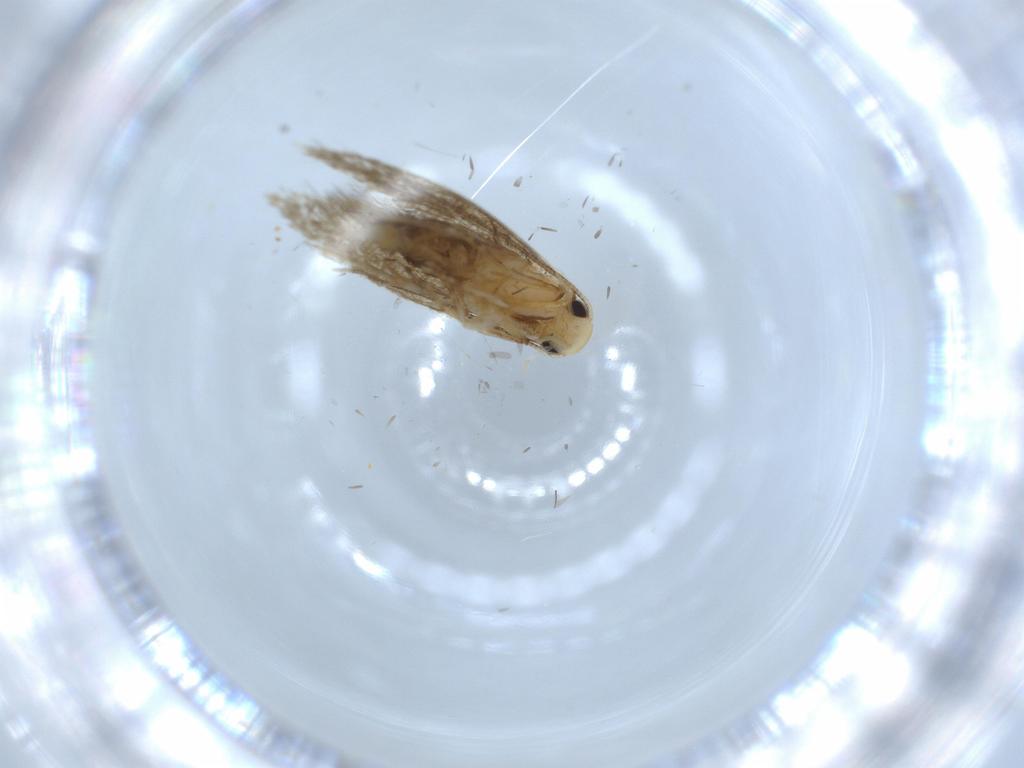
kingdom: Animalia
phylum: Arthropoda
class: Insecta
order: Lepidoptera
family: Tineidae
